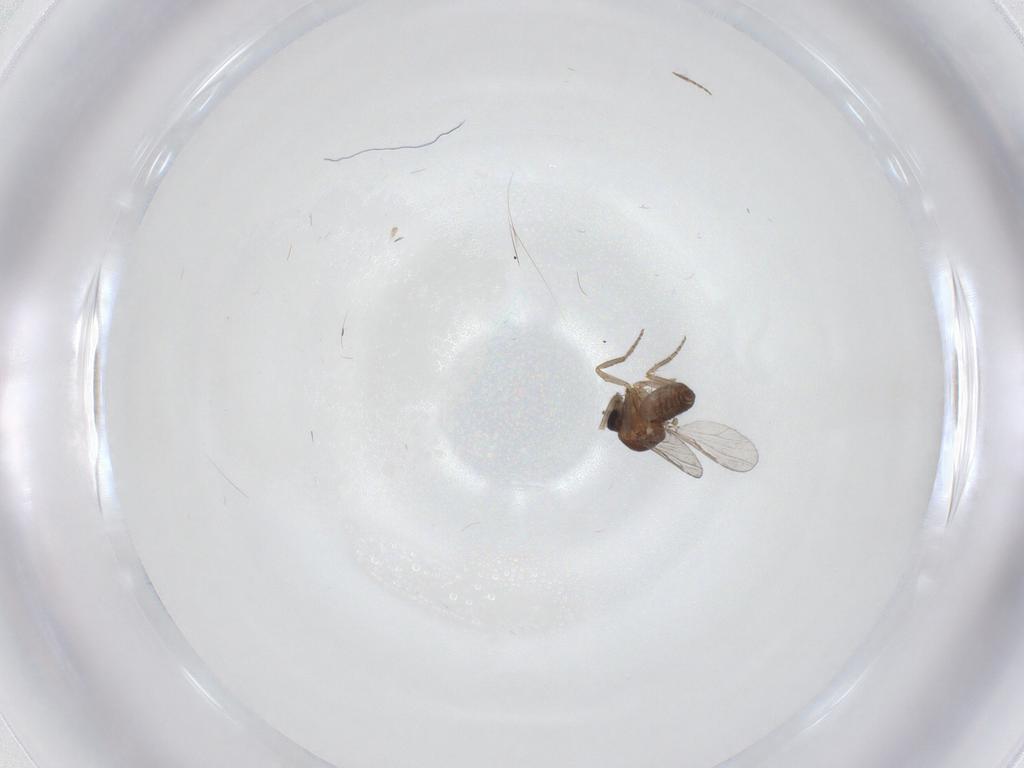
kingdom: Animalia
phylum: Arthropoda
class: Insecta
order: Diptera
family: Ceratopogonidae
